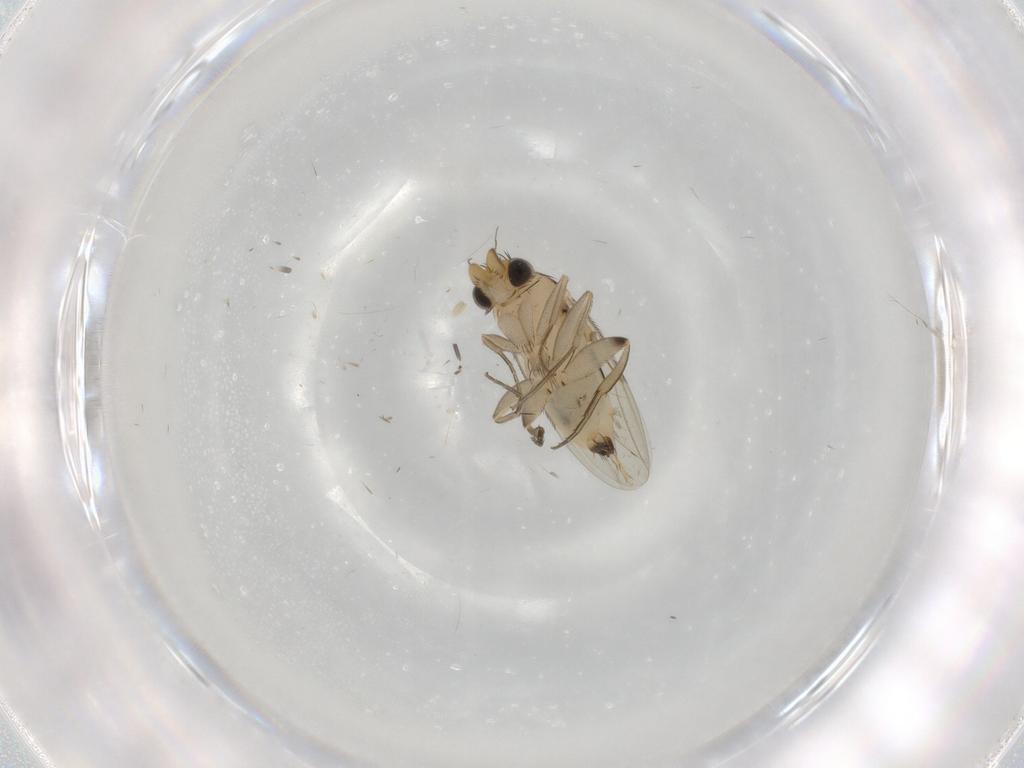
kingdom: Animalia
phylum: Arthropoda
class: Insecta
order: Diptera
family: Phoridae
